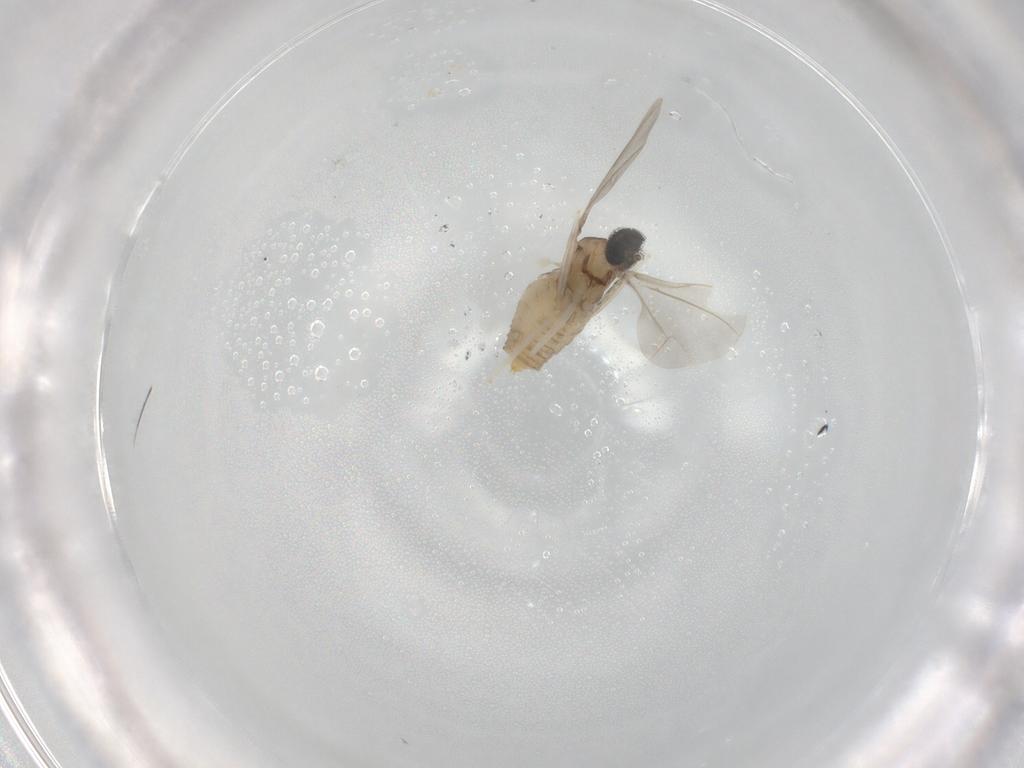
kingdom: Animalia
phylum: Arthropoda
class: Insecta
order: Diptera
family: Cecidomyiidae
